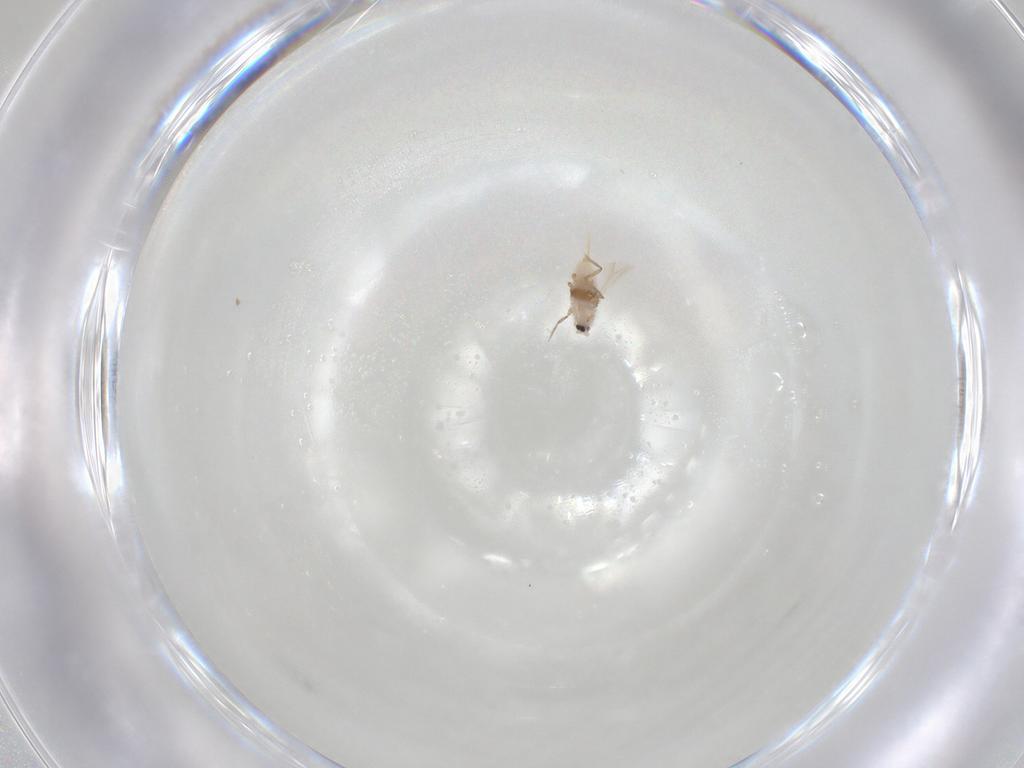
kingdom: Animalia
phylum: Arthropoda
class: Insecta
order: Hemiptera
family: Coccoidea_incertae_sedis
